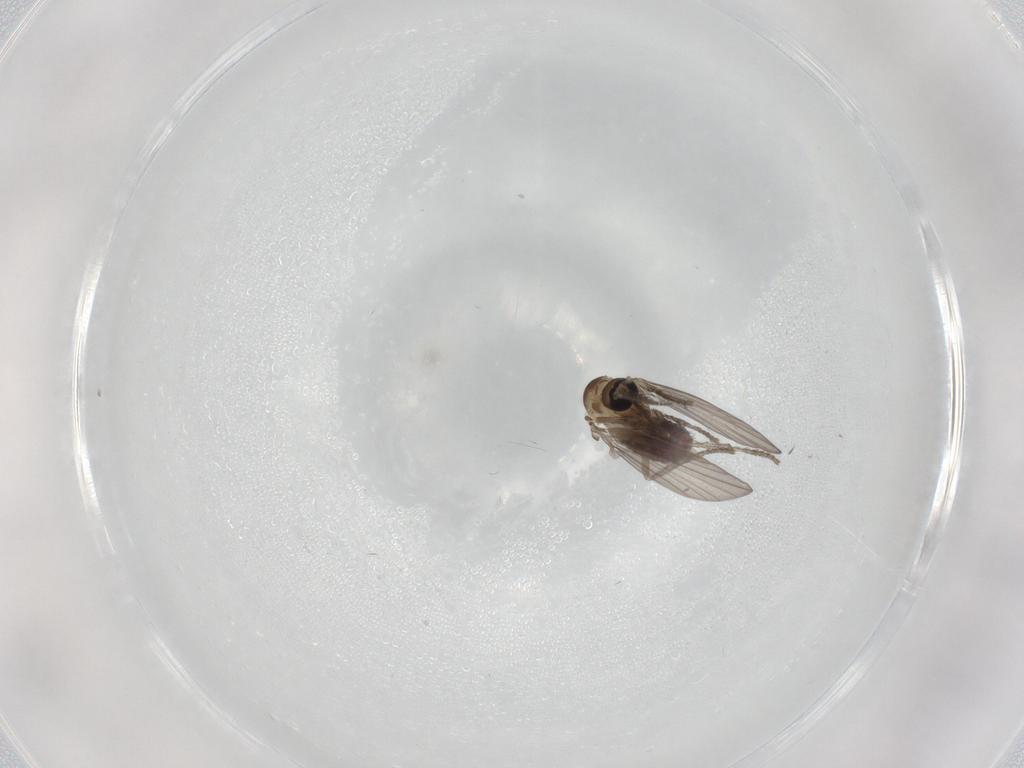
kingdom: Animalia
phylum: Arthropoda
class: Insecta
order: Diptera
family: Psychodidae
